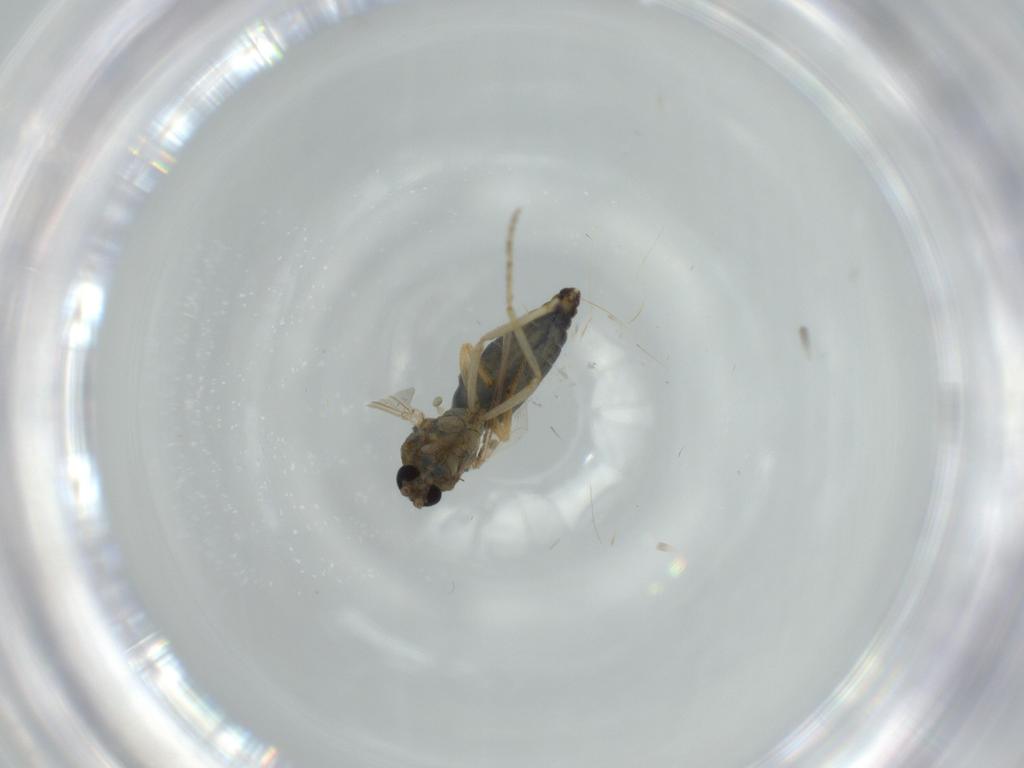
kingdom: Animalia
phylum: Arthropoda
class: Insecta
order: Diptera
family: Ceratopogonidae
